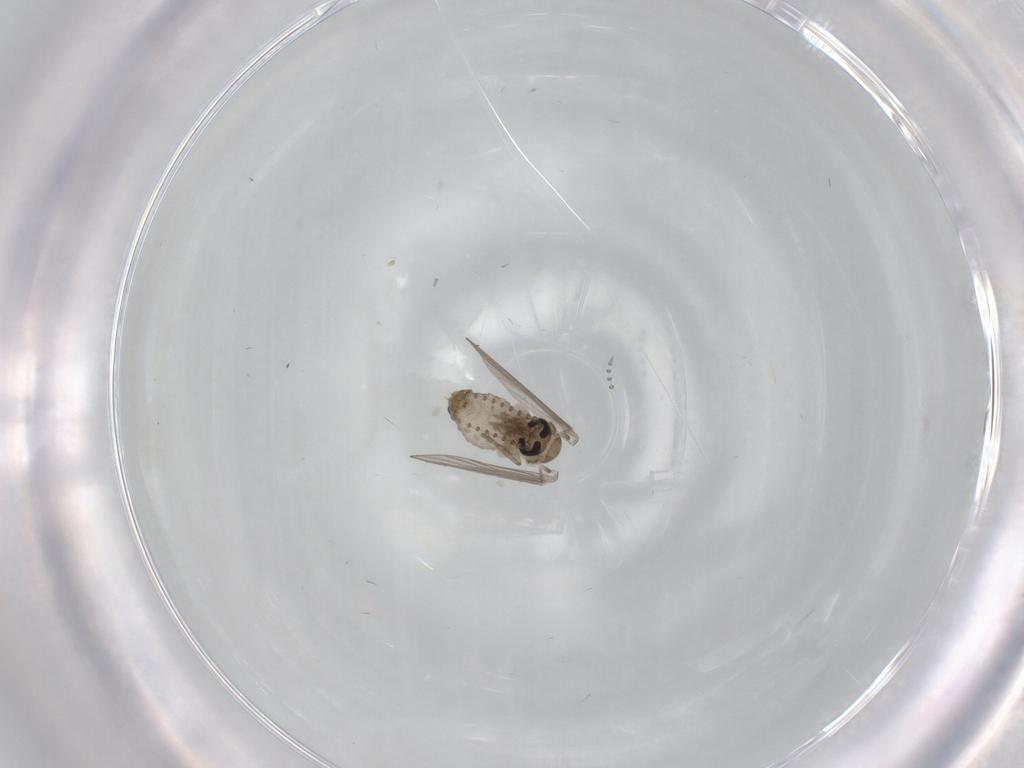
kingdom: Animalia
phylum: Arthropoda
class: Insecta
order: Diptera
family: Psychodidae
